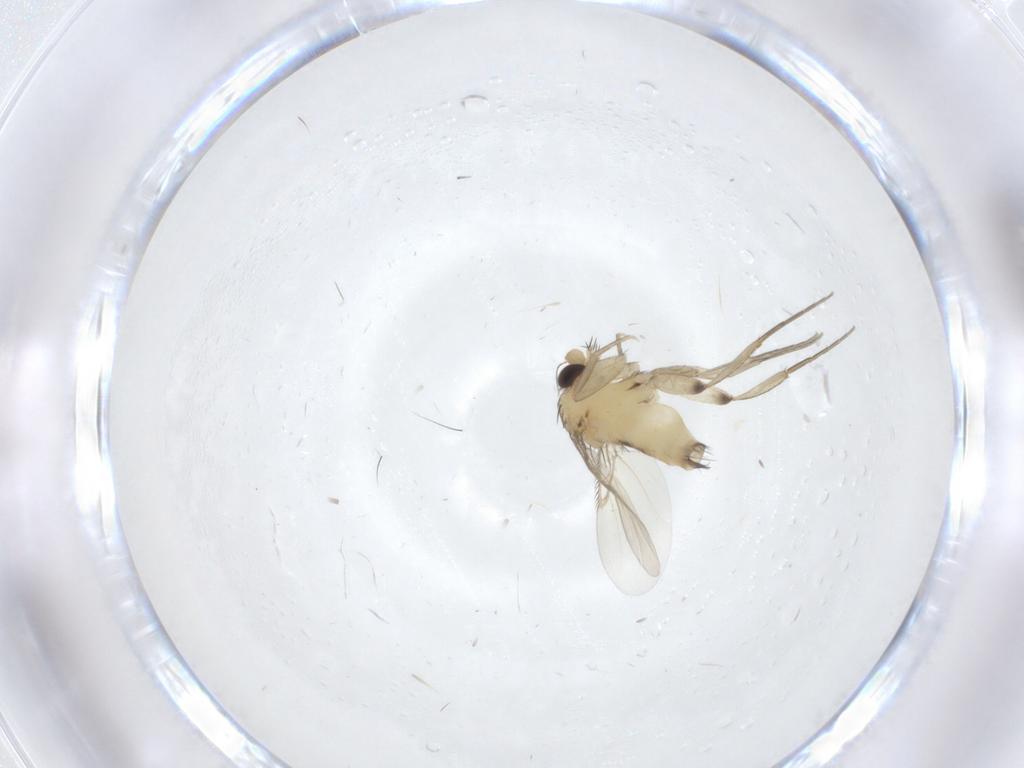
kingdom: Animalia
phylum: Arthropoda
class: Insecta
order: Diptera
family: Phoridae
